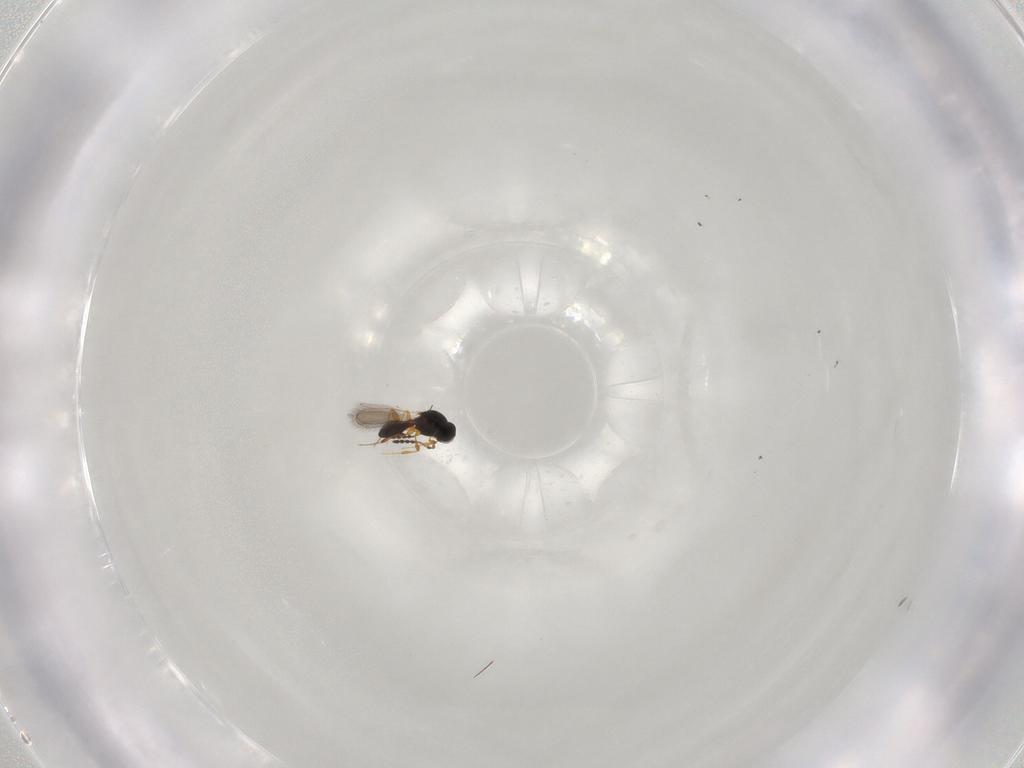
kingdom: Animalia
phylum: Arthropoda
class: Insecta
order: Hymenoptera
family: Platygastridae
